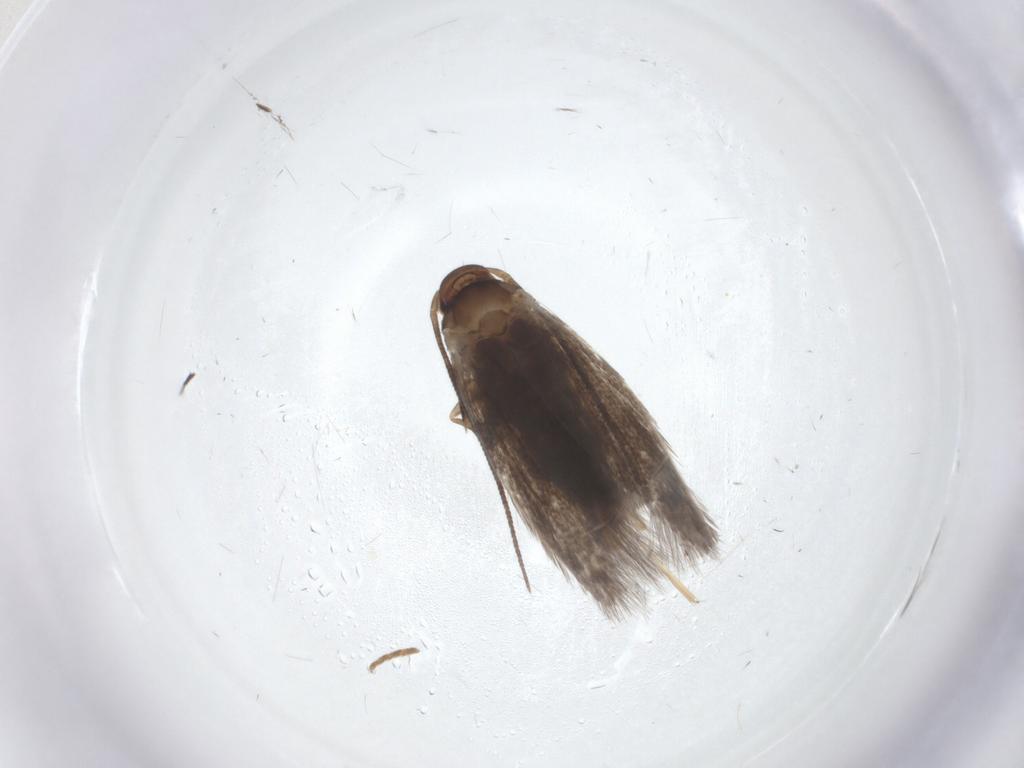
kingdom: Animalia
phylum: Arthropoda
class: Insecta
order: Lepidoptera
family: Elachistidae
